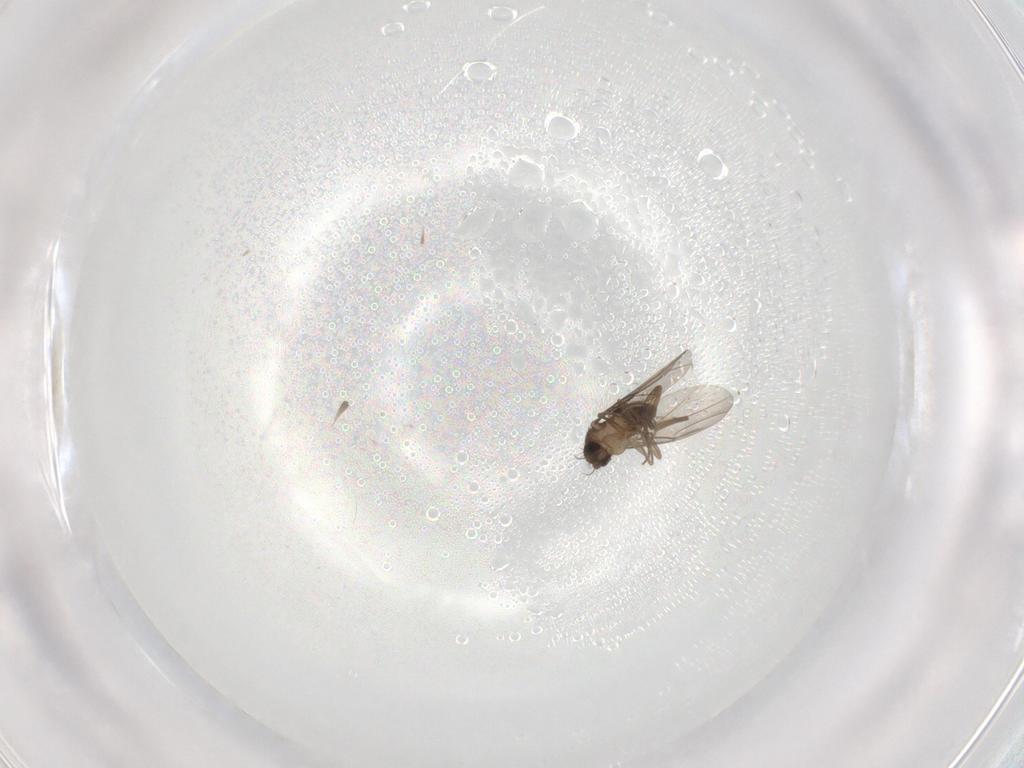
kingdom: Animalia
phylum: Arthropoda
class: Insecta
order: Diptera
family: Phoridae
